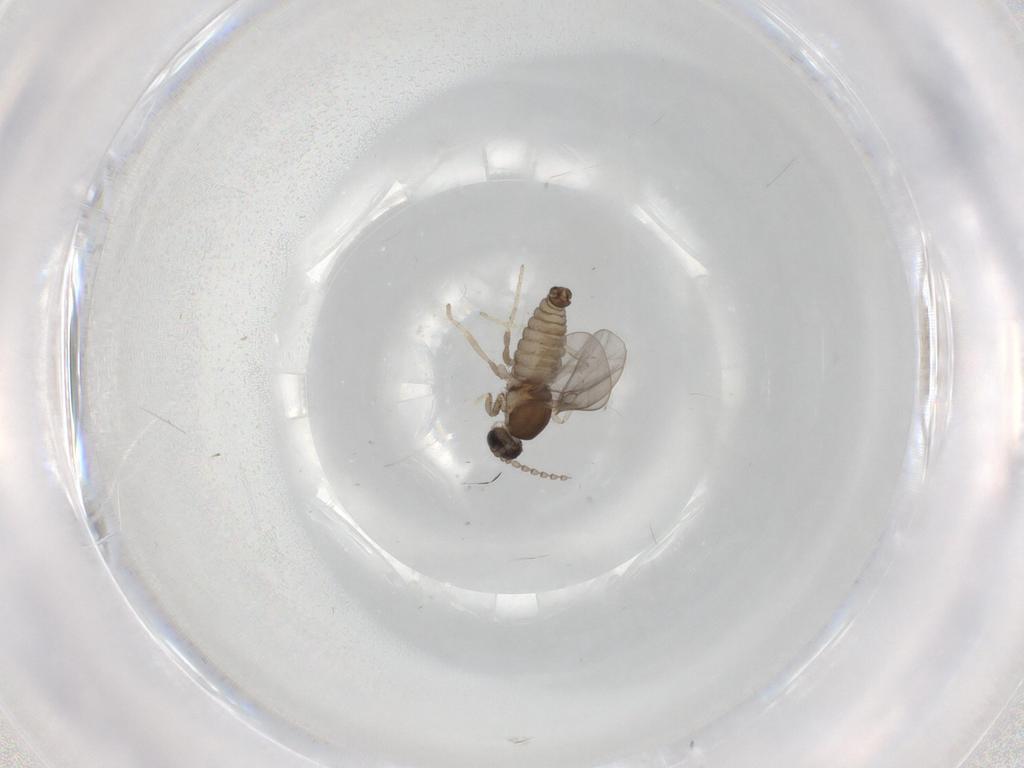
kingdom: Animalia
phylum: Arthropoda
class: Insecta
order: Diptera
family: Cecidomyiidae
